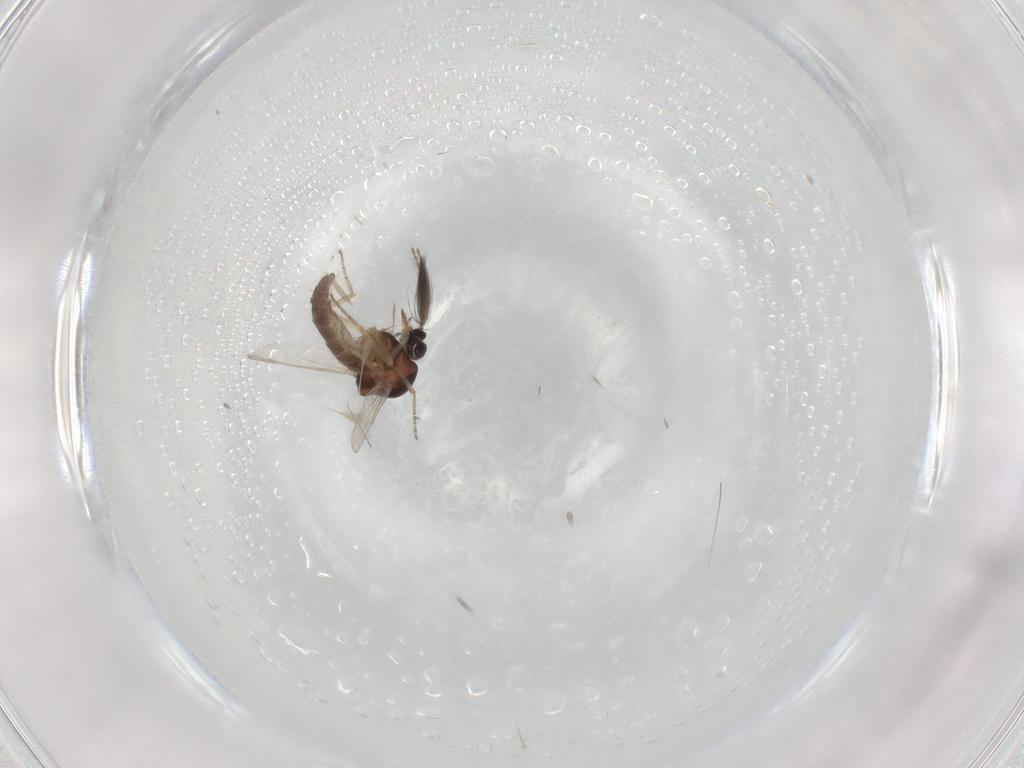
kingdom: Animalia
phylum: Arthropoda
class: Insecta
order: Diptera
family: Ceratopogonidae
